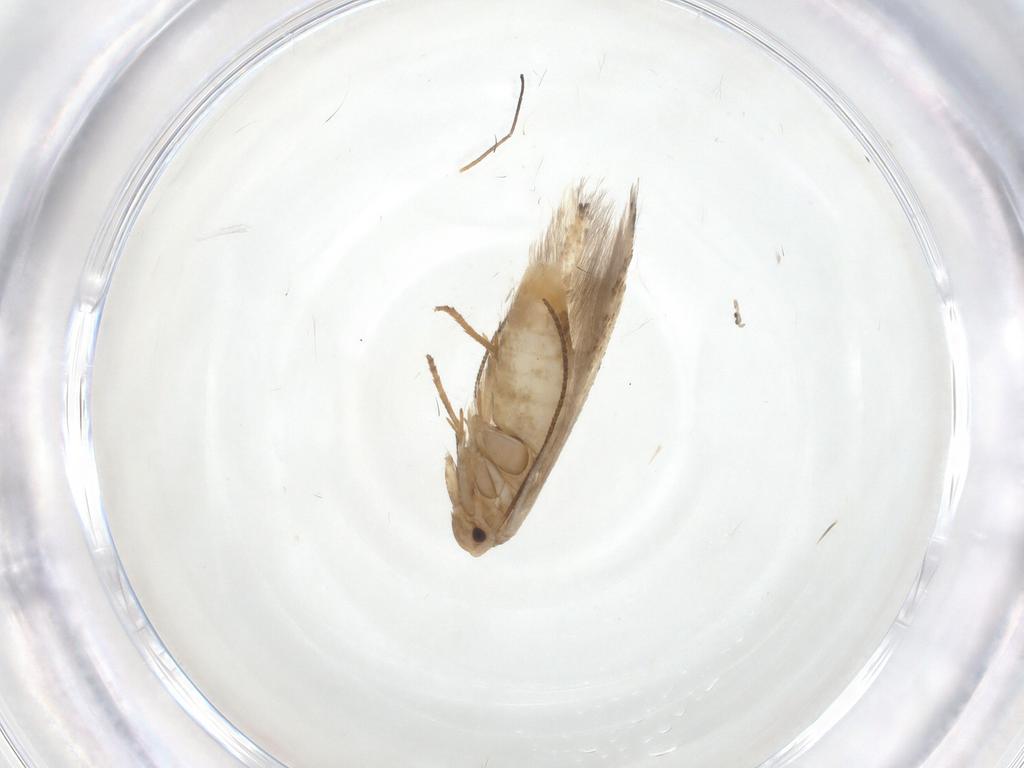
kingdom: Animalia
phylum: Arthropoda
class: Insecta
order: Lepidoptera
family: Bucculatricidae
